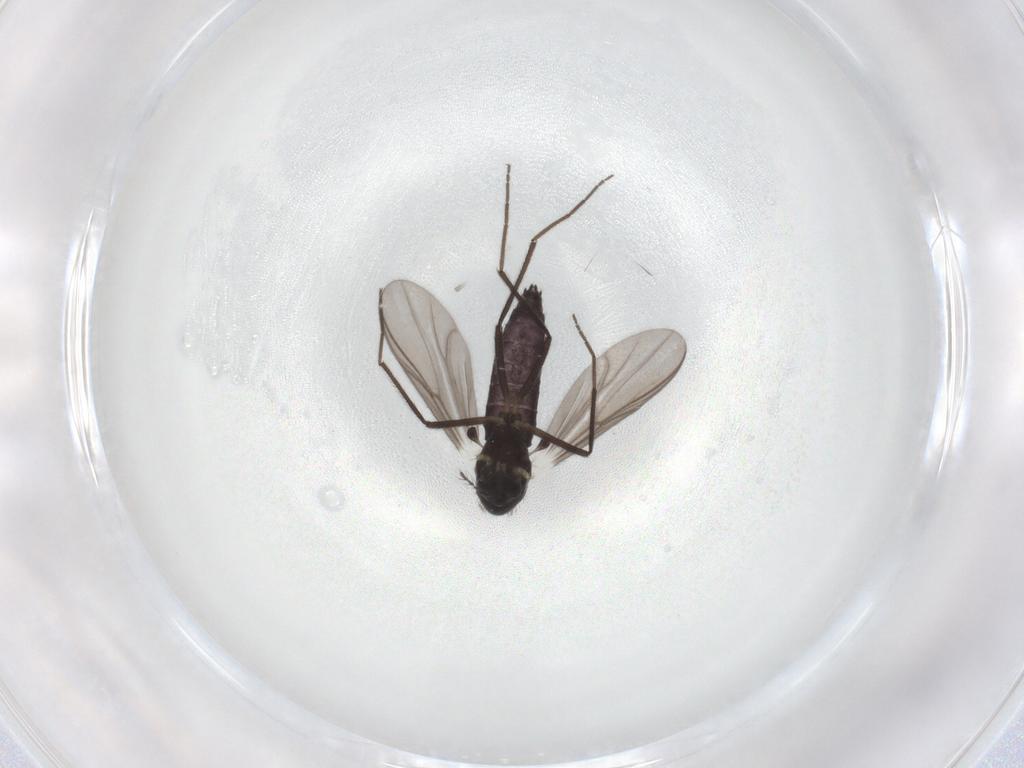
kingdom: Animalia
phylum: Arthropoda
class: Insecta
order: Diptera
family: Chironomidae
